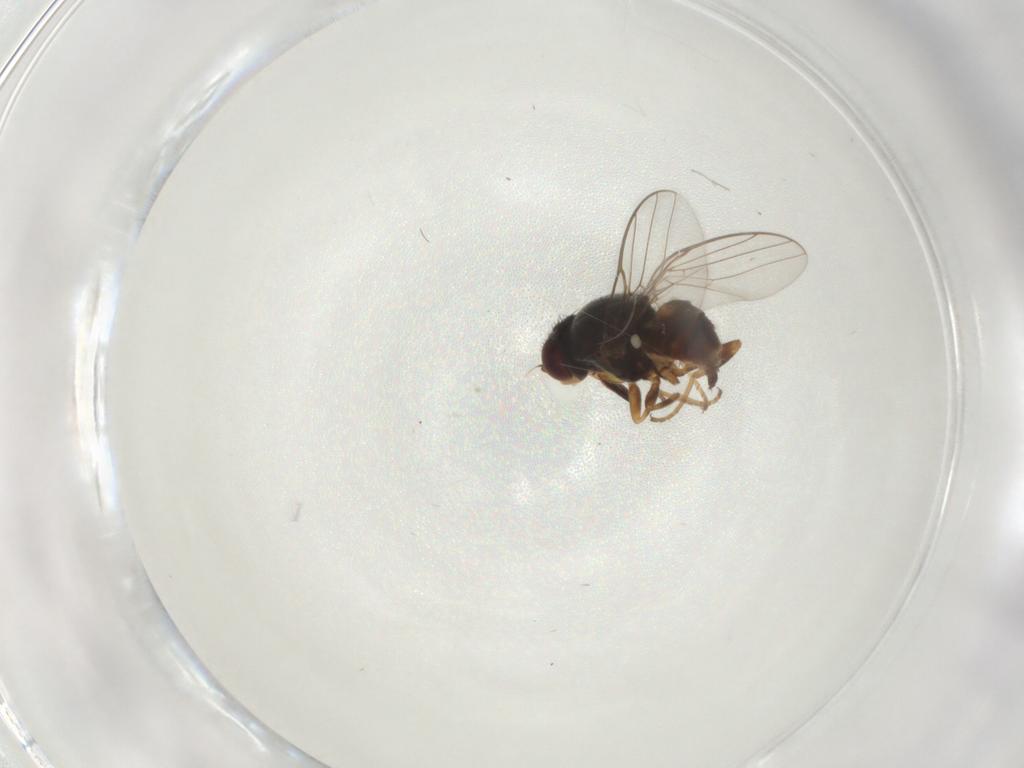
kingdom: Animalia
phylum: Arthropoda
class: Insecta
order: Diptera
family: Chloropidae
